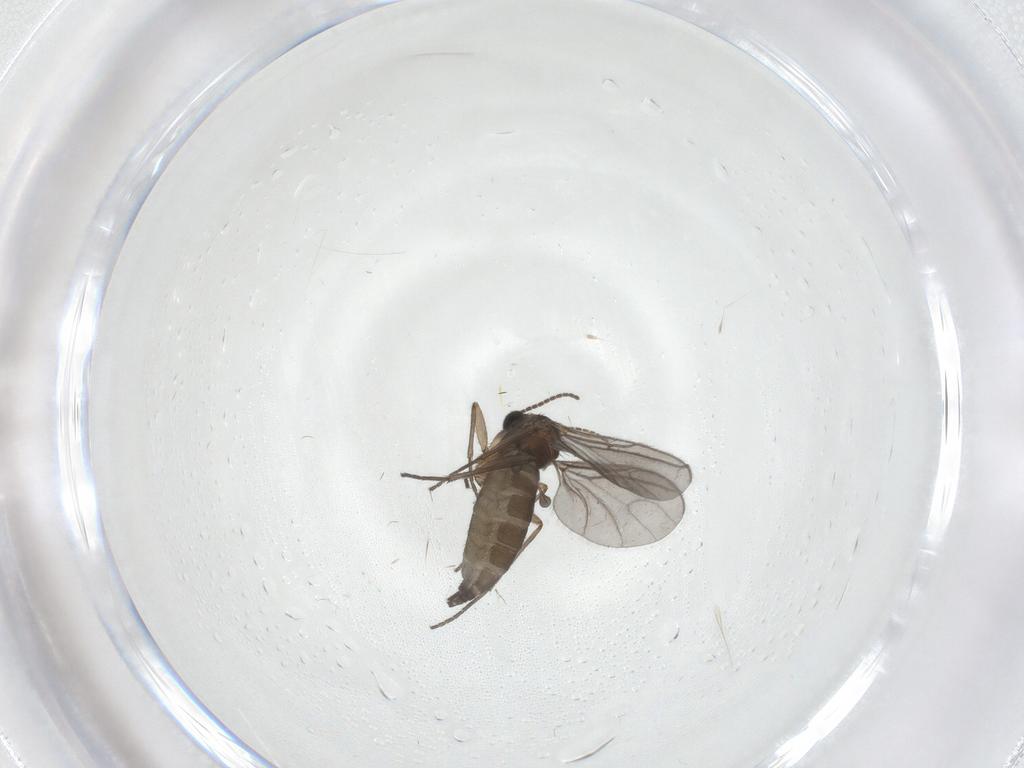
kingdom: Animalia
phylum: Arthropoda
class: Insecta
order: Diptera
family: Sciaridae
